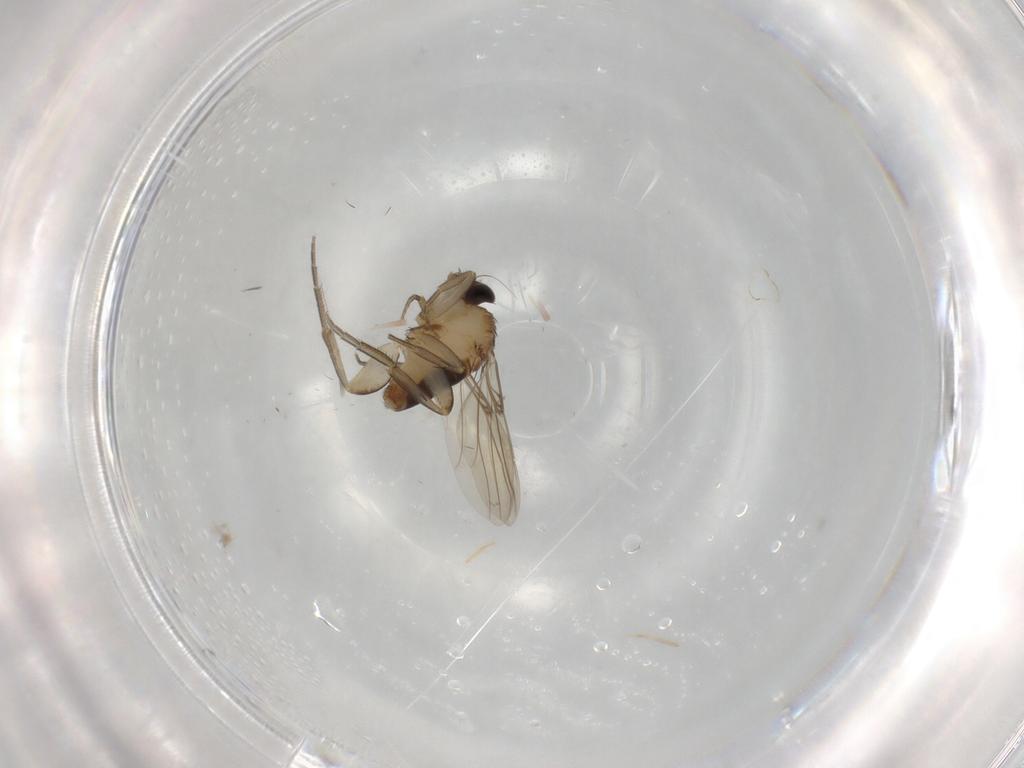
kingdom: Animalia
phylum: Arthropoda
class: Insecta
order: Diptera
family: Phoridae
